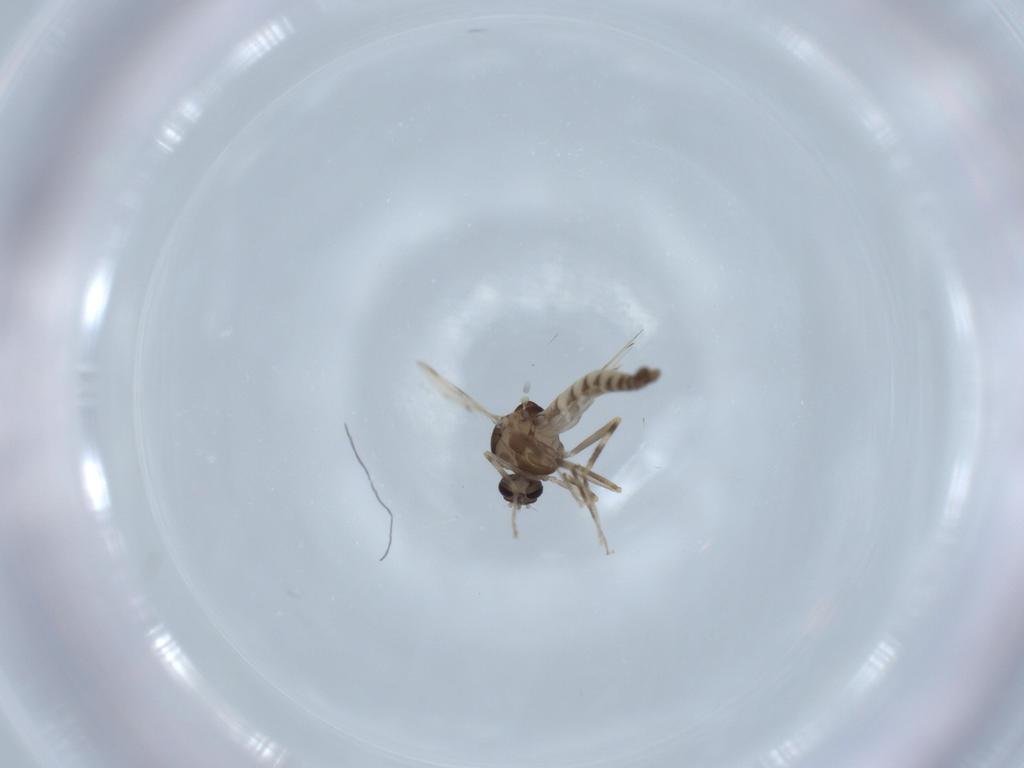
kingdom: Animalia
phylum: Arthropoda
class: Insecta
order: Diptera
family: Ceratopogonidae
